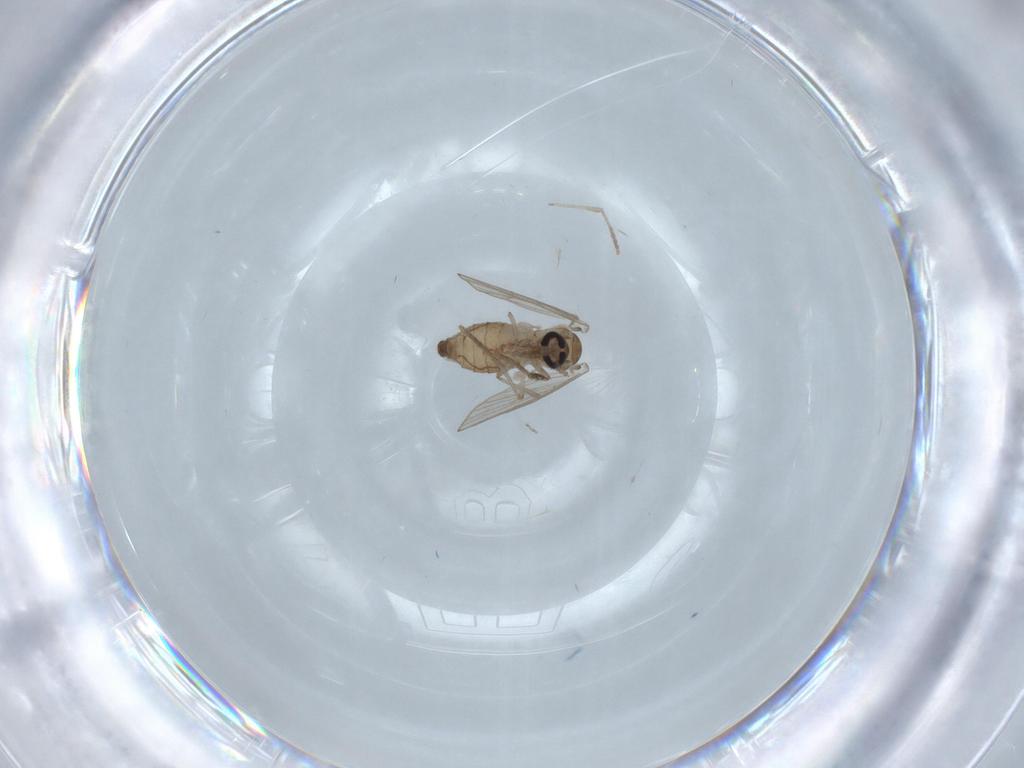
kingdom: Animalia
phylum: Arthropoda
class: Insecta
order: Diptera
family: Psychodidae
